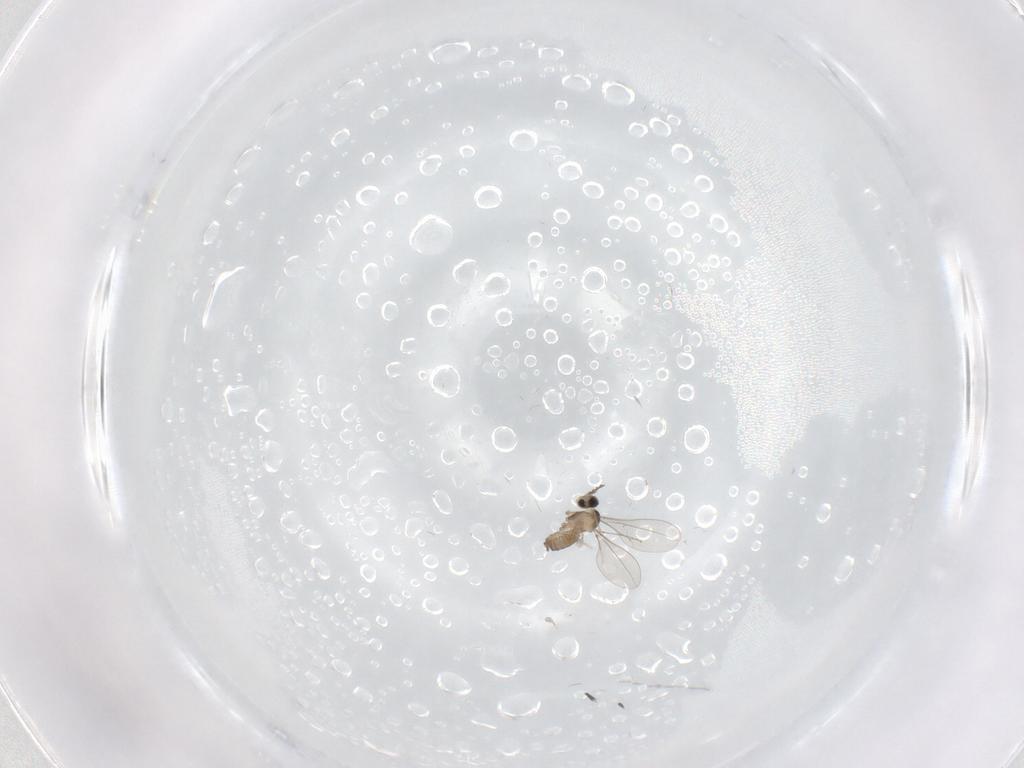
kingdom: Animalia
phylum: Arthropoda
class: Insecta
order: Diptera
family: Cecidomyiidae
